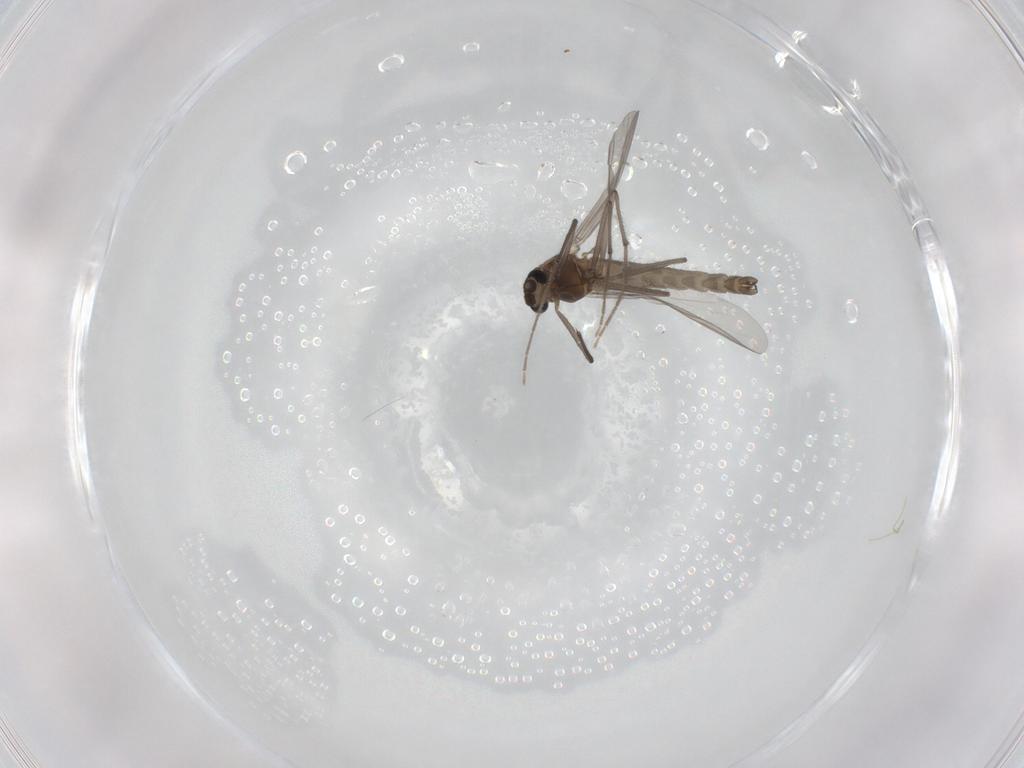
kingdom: Animalia
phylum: Arthropoda
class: Insecta
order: Diptera
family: Chironomidae
